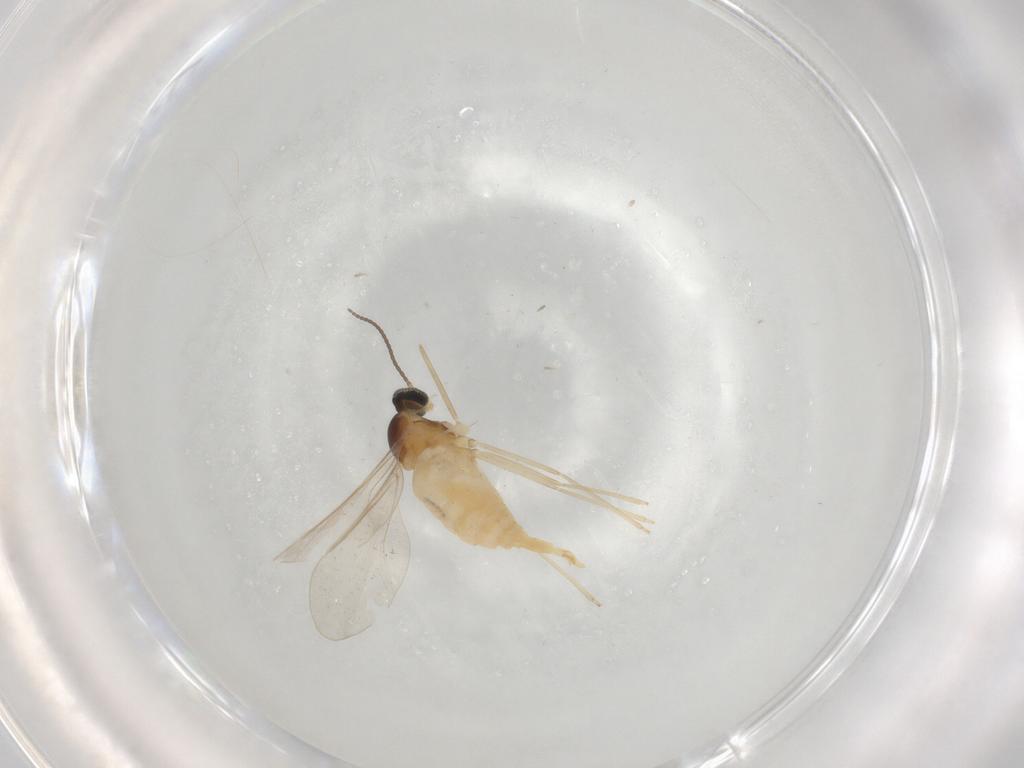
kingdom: Animalia
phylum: Arthropoda
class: Insecta
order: Diptera
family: Cecidomyiidae
